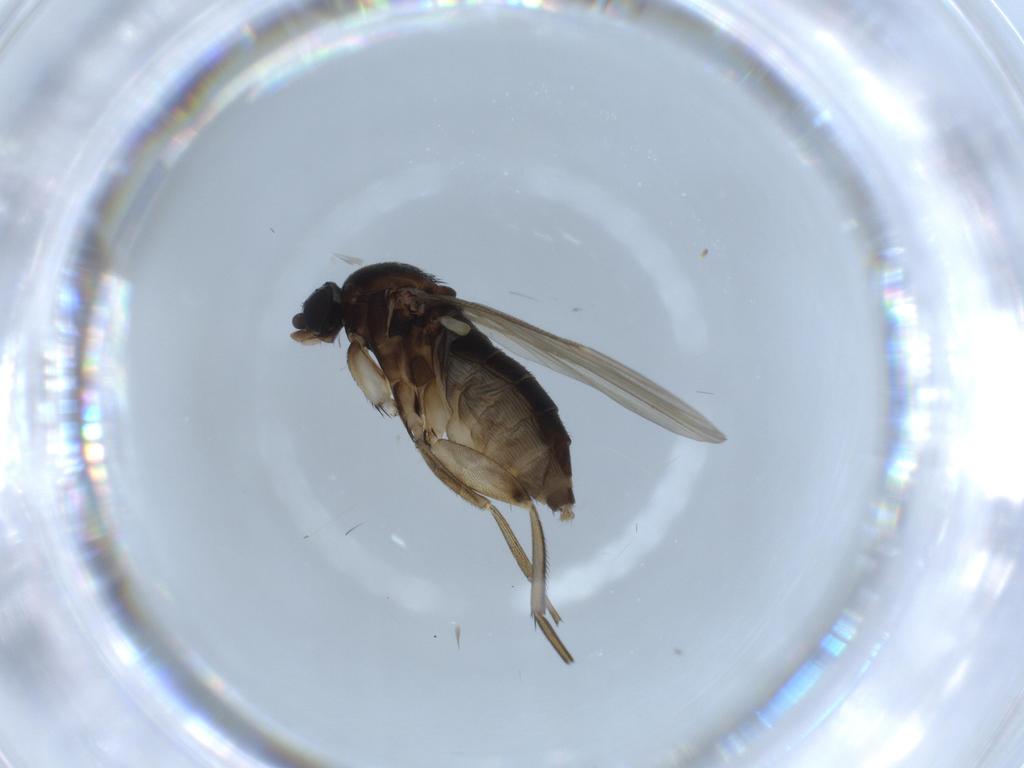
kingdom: Animalia
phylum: Arthropoda
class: Insecta
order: Diptera
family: Phoridae
